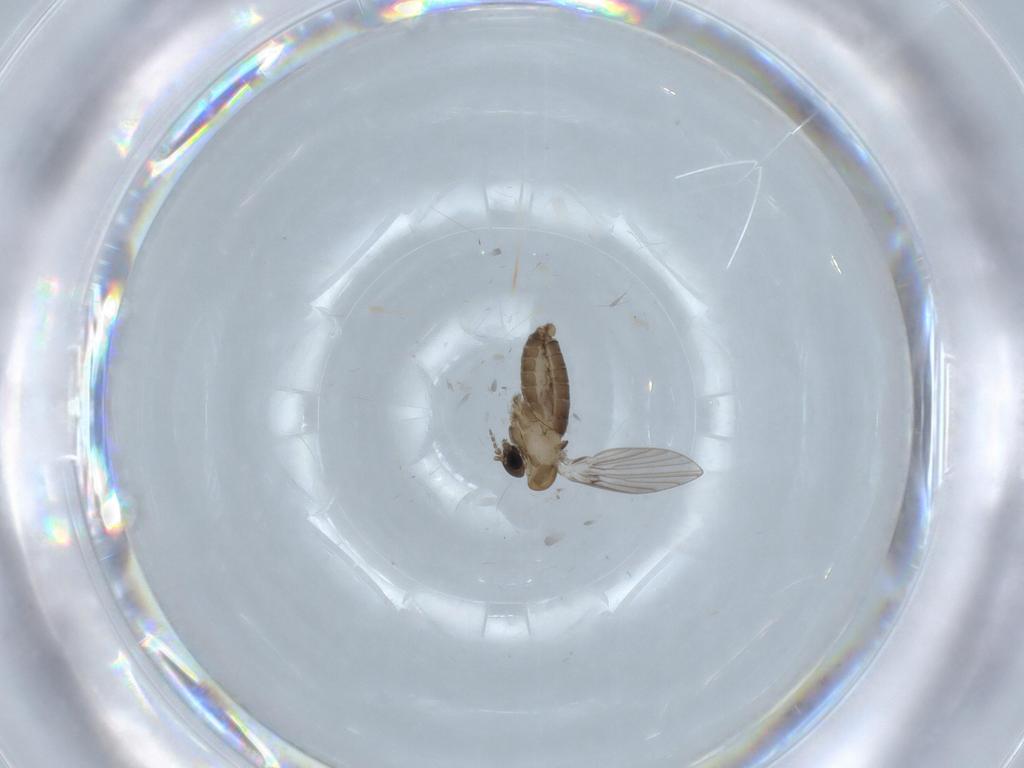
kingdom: Animalia
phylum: Arthropoda
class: Insecta
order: Diptera
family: Psychodidae
